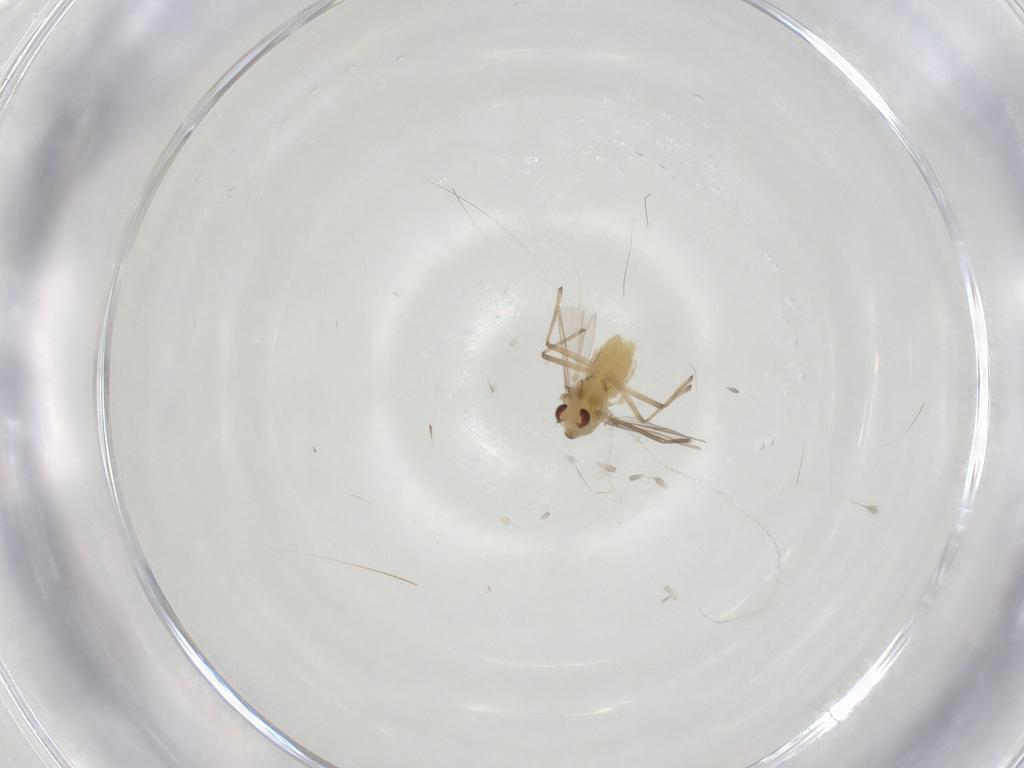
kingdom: Animalia
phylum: Arthropoda
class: Insecta
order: Diptera
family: Chironomidae
